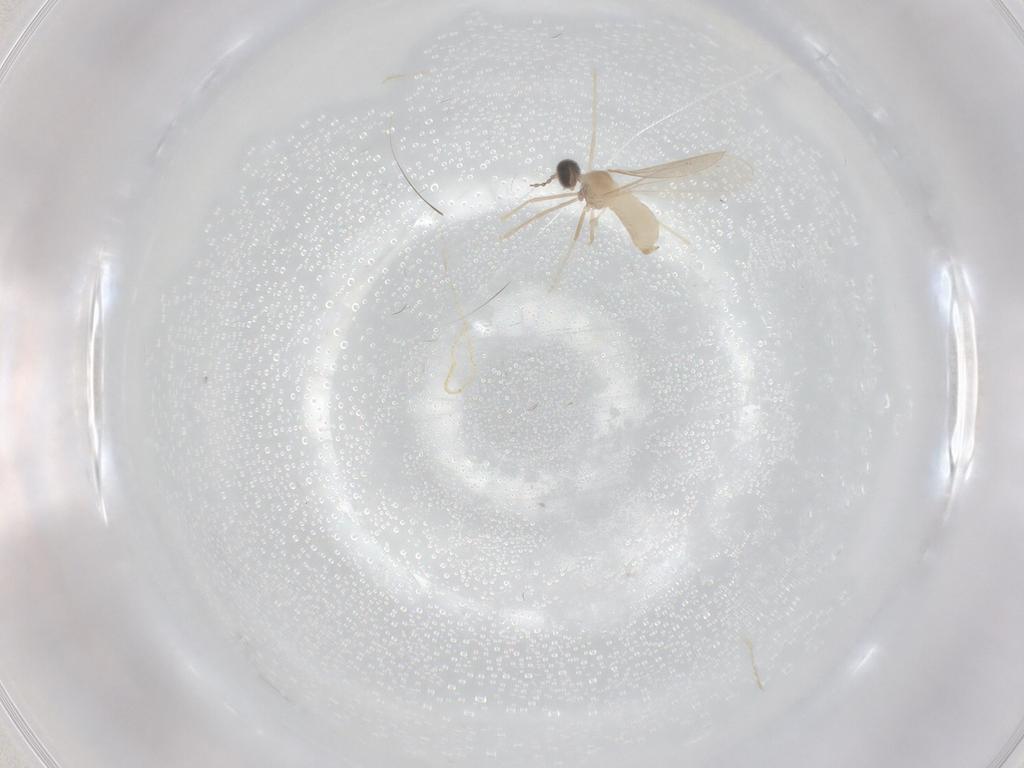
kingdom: Animalia
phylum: Arthropoda
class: Insecta
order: Diptera
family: Cecidomyiidae
